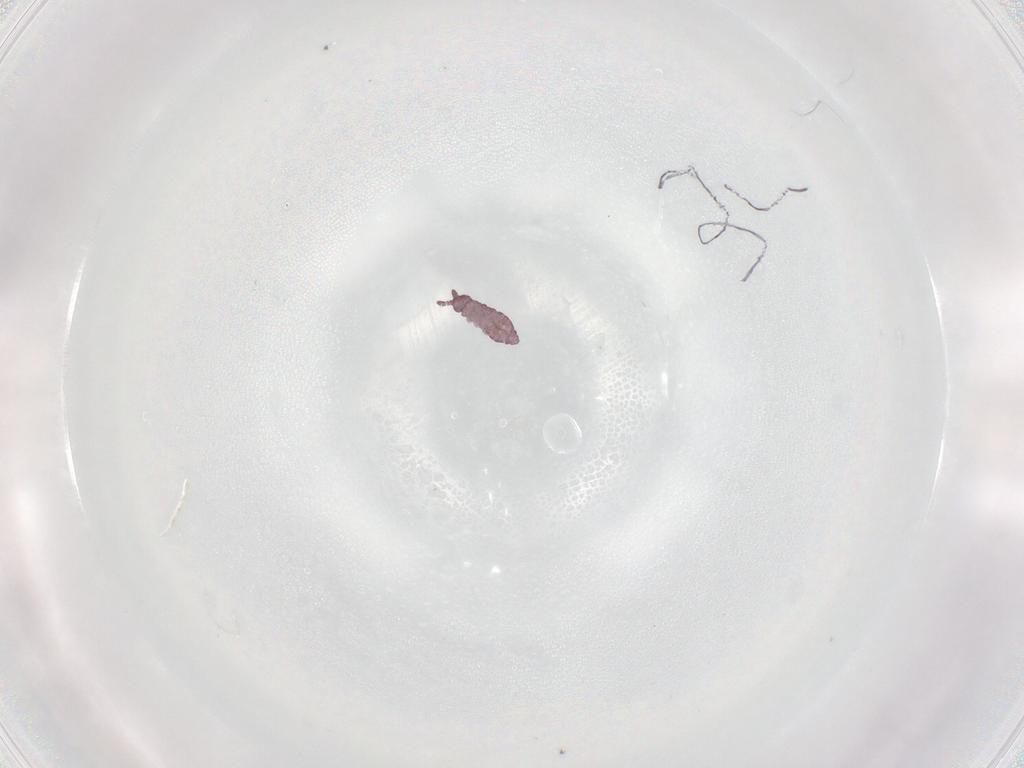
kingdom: Animalia
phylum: Arthropoda
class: Collembola
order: Poduromorpha
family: Hypogastruridae
